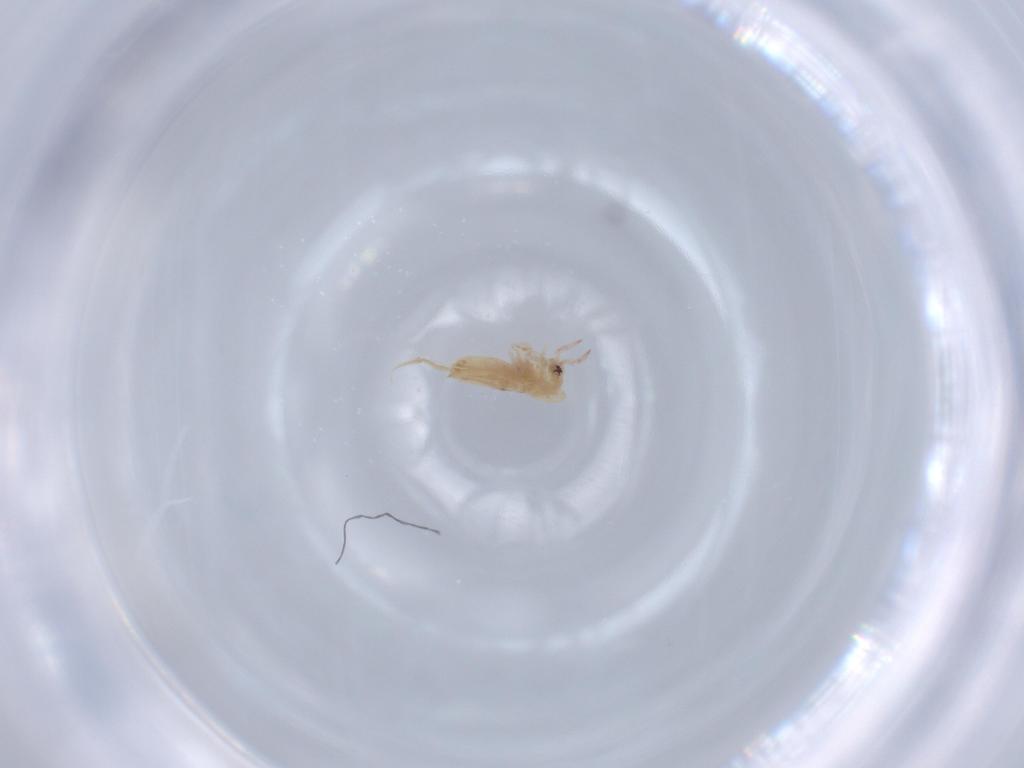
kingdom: Animalia
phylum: Arthropoda
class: Collembola
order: Entomobryomorpha
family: Entomobryidae
